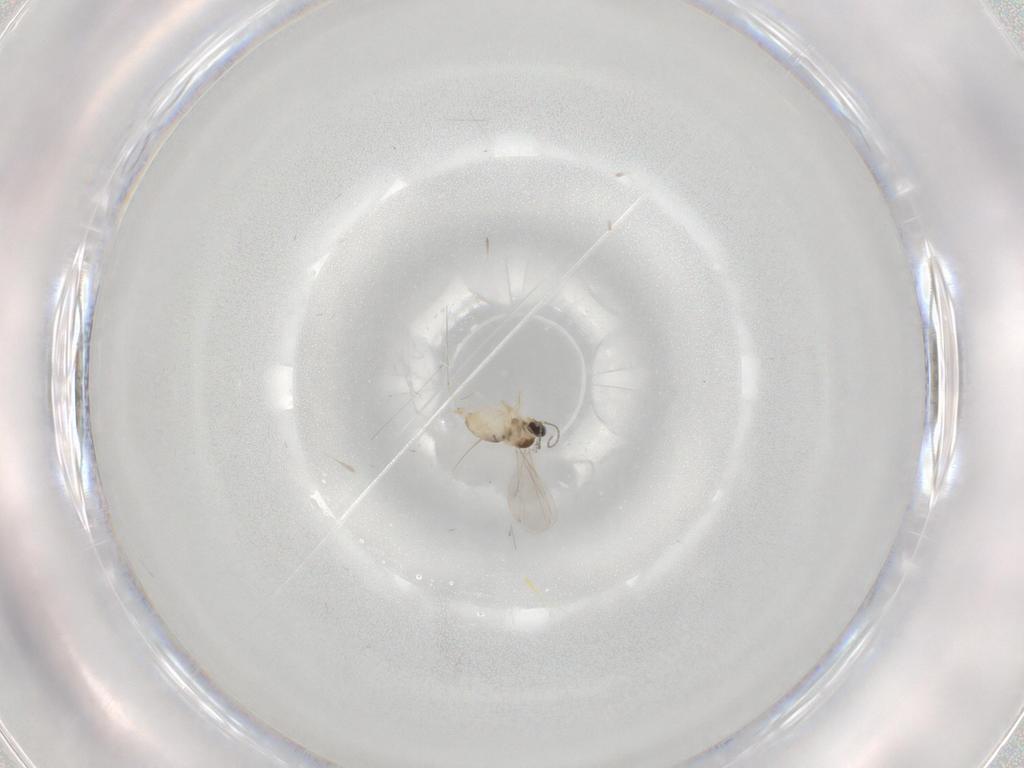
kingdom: Animalia
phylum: Arthropoda
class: Insecta
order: Diptera
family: Cecidomyiidae
